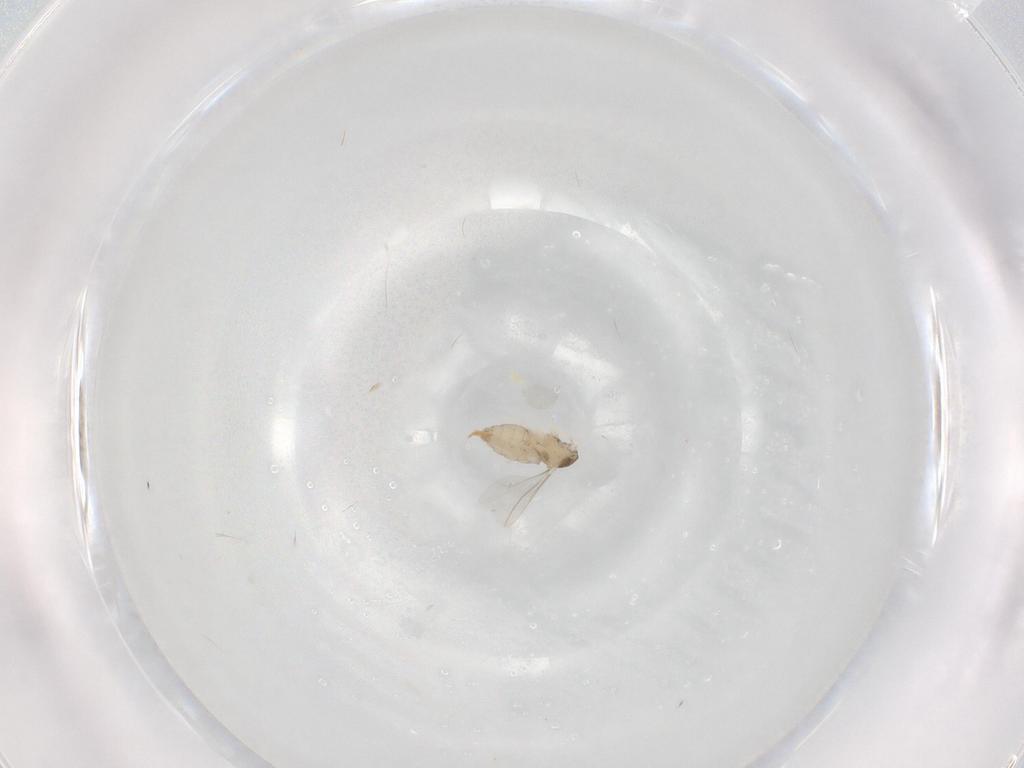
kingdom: Animalia
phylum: Arthropoda
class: Insecta
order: Diptera
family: Cecidomyiidae
